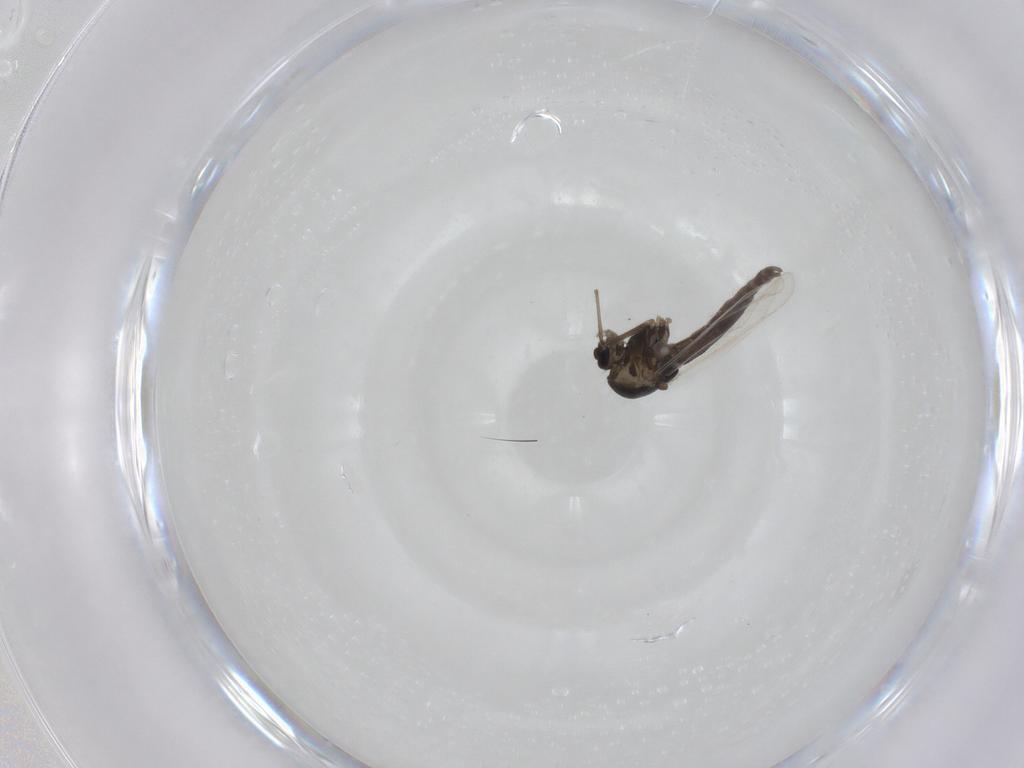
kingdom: Animalia
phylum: Arthropoda
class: Insecta
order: Diptera
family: Chironomidae
